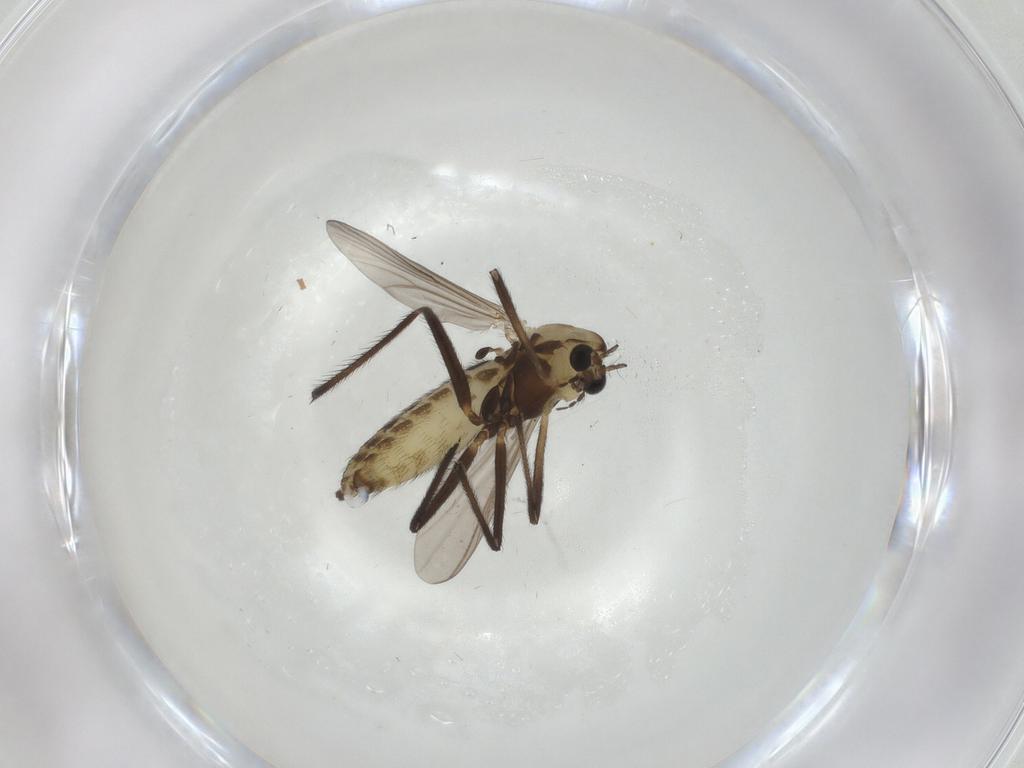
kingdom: Animalia
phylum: Arthropoda
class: Insecta
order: Diptera
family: Chironomidae
